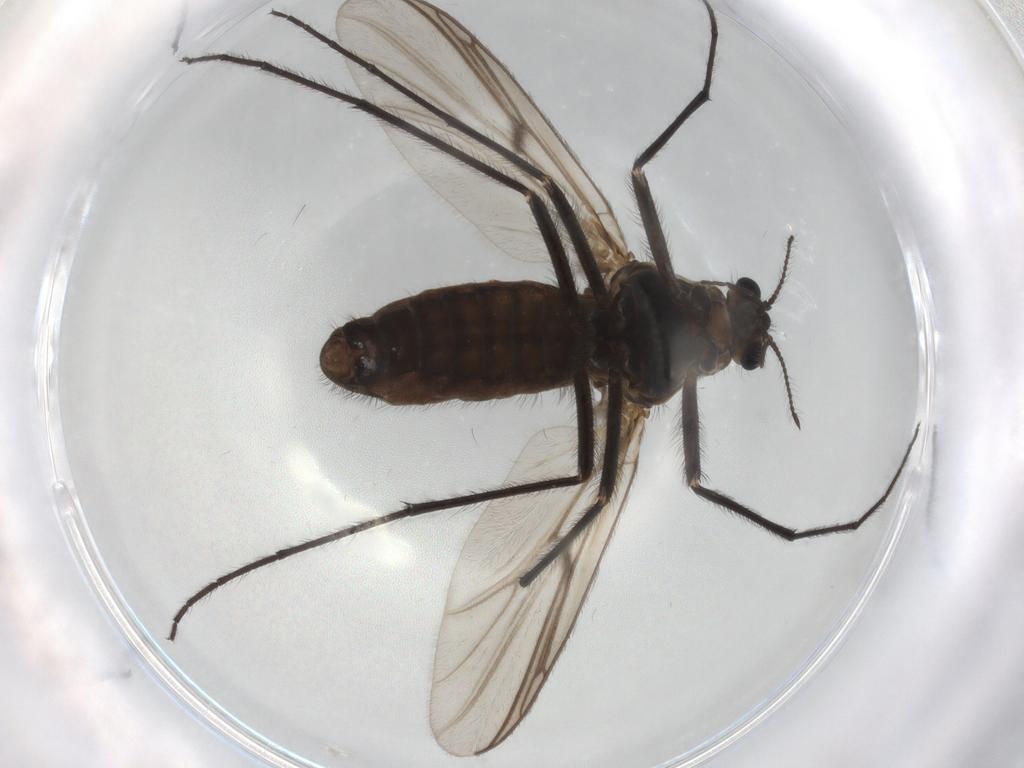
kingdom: Animalia
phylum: Arthropoda
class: Insecta
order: Diptera
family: Chironomidae
